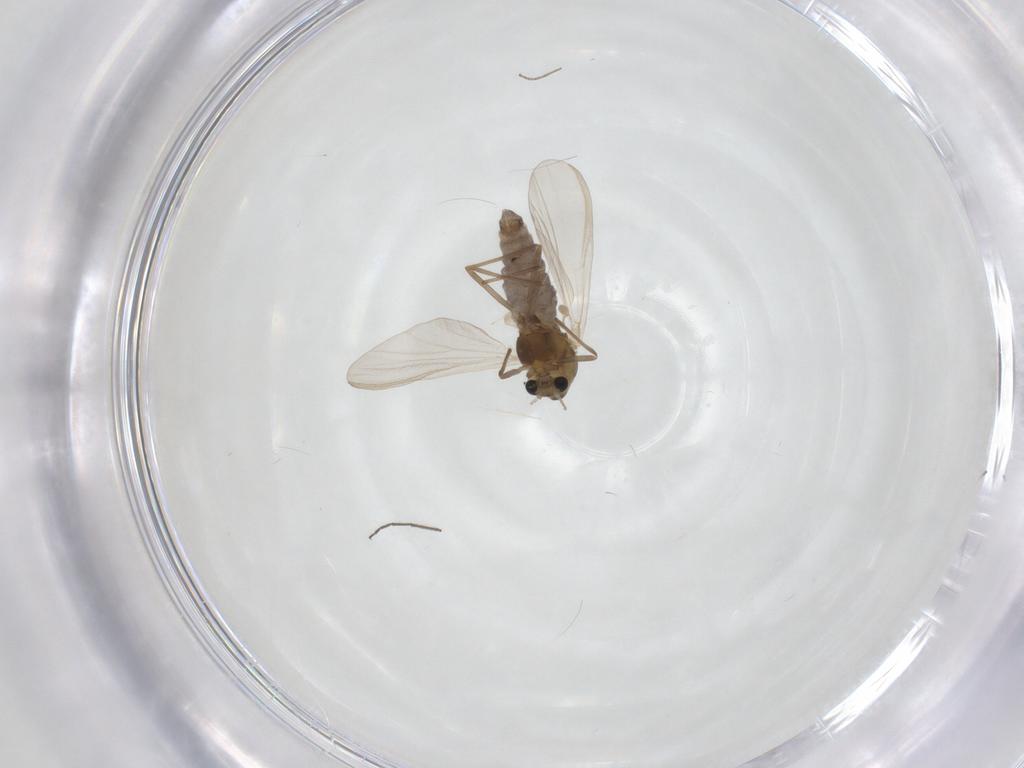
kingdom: Animalia
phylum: Arthropoda
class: Insecta
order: Diptera
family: Chironomidae
